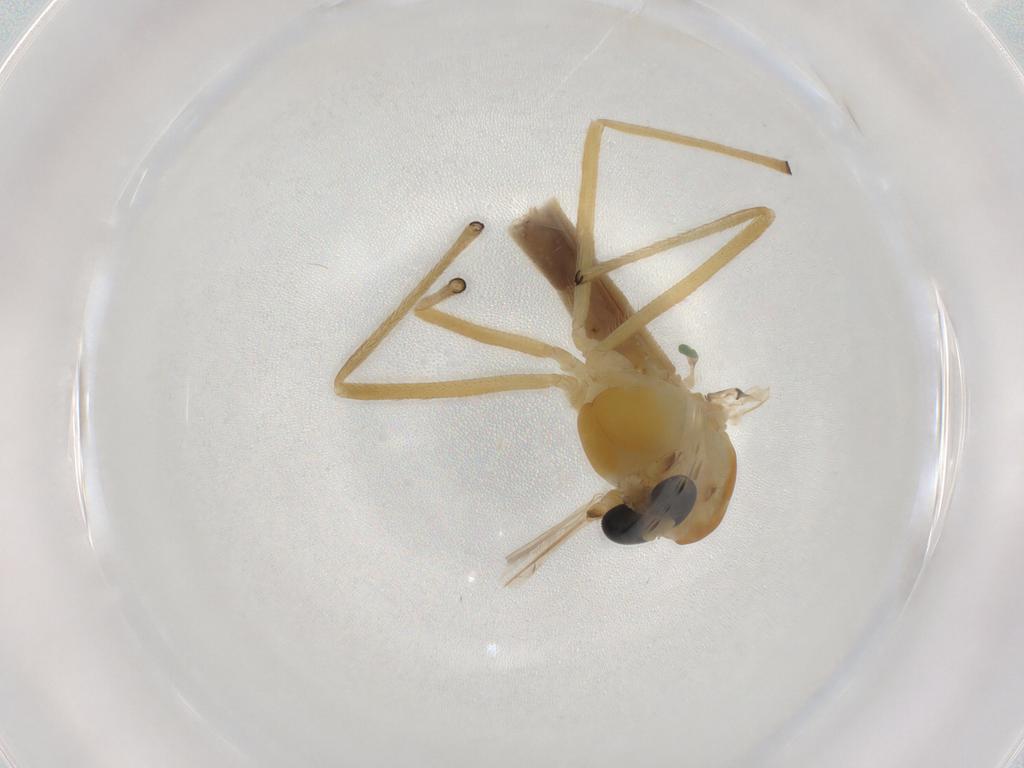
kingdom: Animalia
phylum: Arthropoda
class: Insecta
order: Diptera
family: Chironomidae
